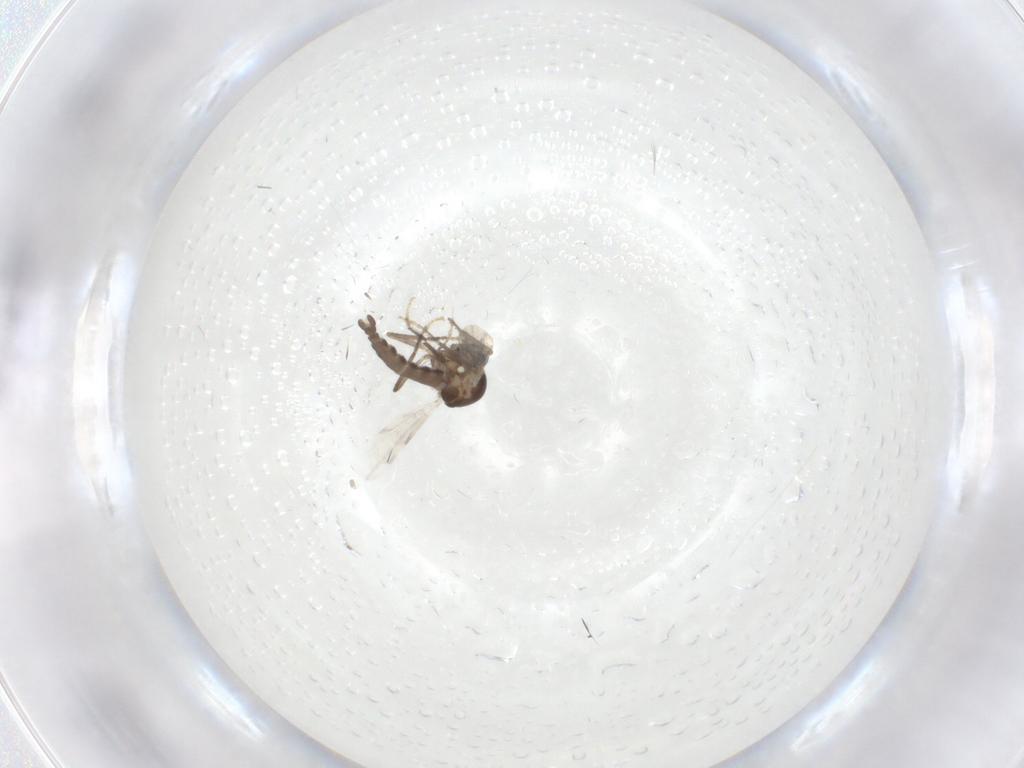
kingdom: Animalia
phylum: Arthropoda
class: Insecta
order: Diptera
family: Ceratopogonidae
